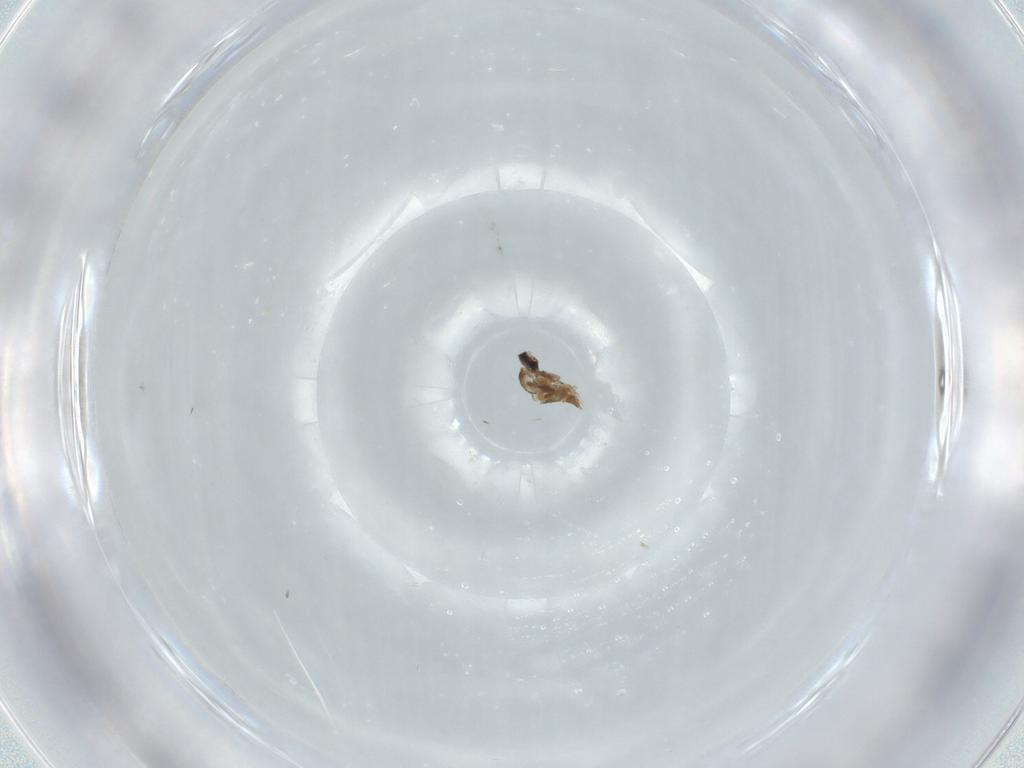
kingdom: Animalia
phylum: Arthropoda
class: Insecta
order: Diptera
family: Chironomidae
